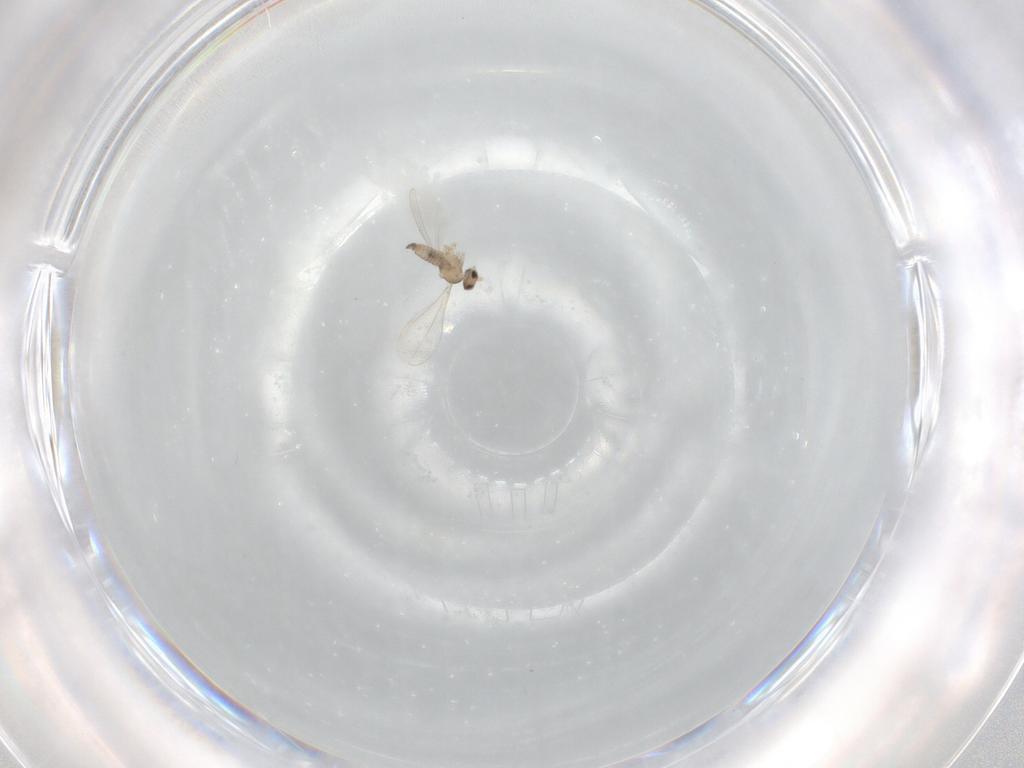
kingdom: Animalia
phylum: Arthropoda
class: Insecta
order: Diptera
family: Cecidomyiidae
